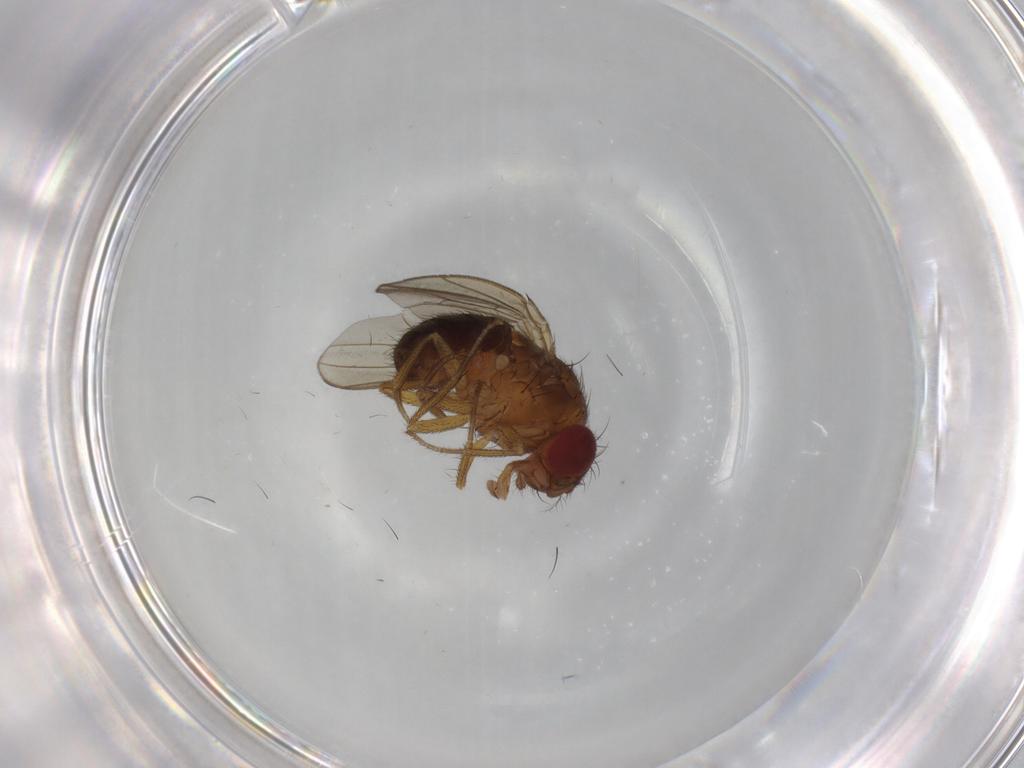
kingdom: Animalia
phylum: Arthropoda
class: Insecta
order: Diptera
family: Drosophilidae
